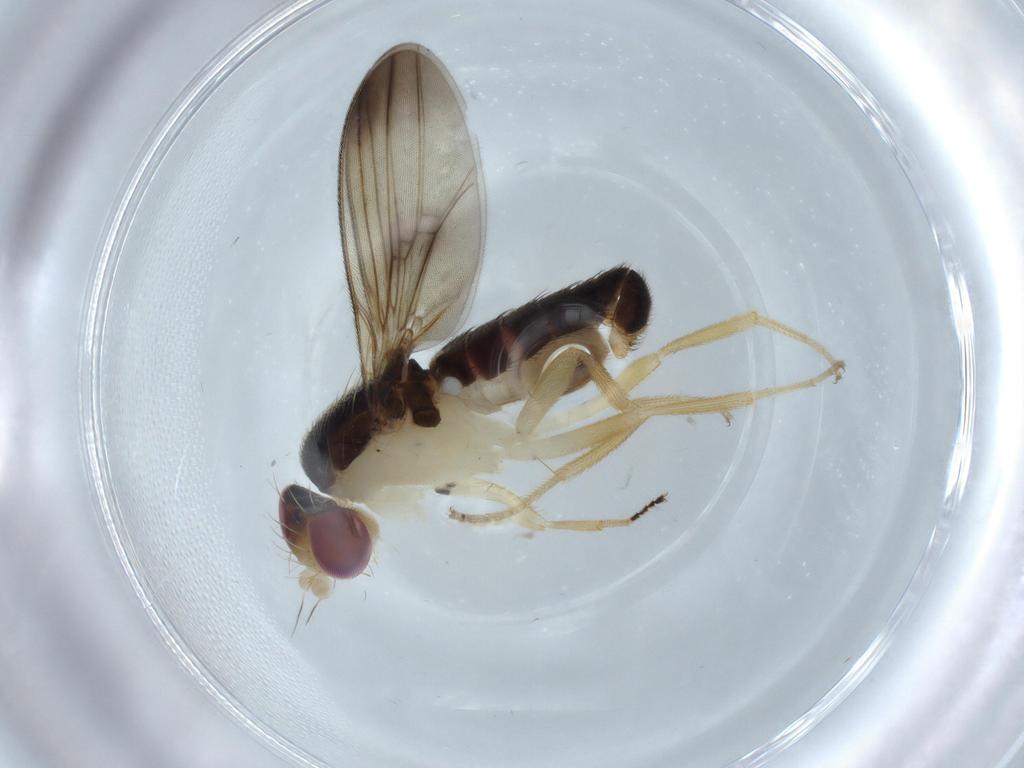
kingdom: Animalia
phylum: Arthropoda
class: Insecta
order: Diptera
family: Clusiidae
